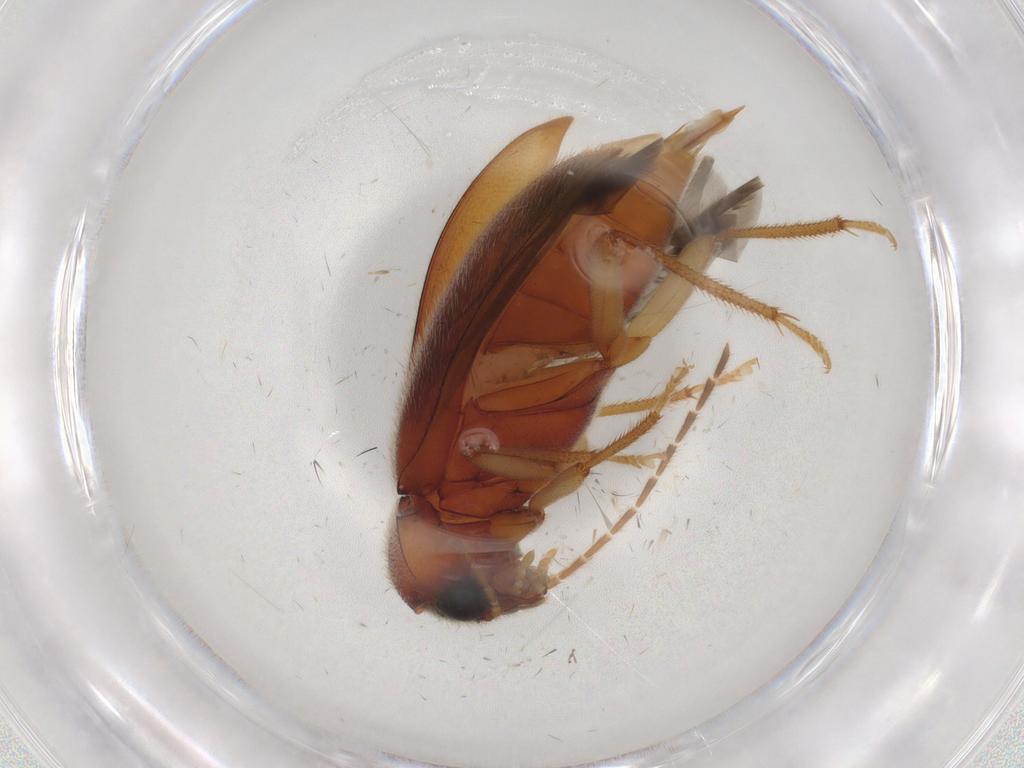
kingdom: Animalia
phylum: Arthropoda
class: Insecta
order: Coleoptera
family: Ptilodactylidae
